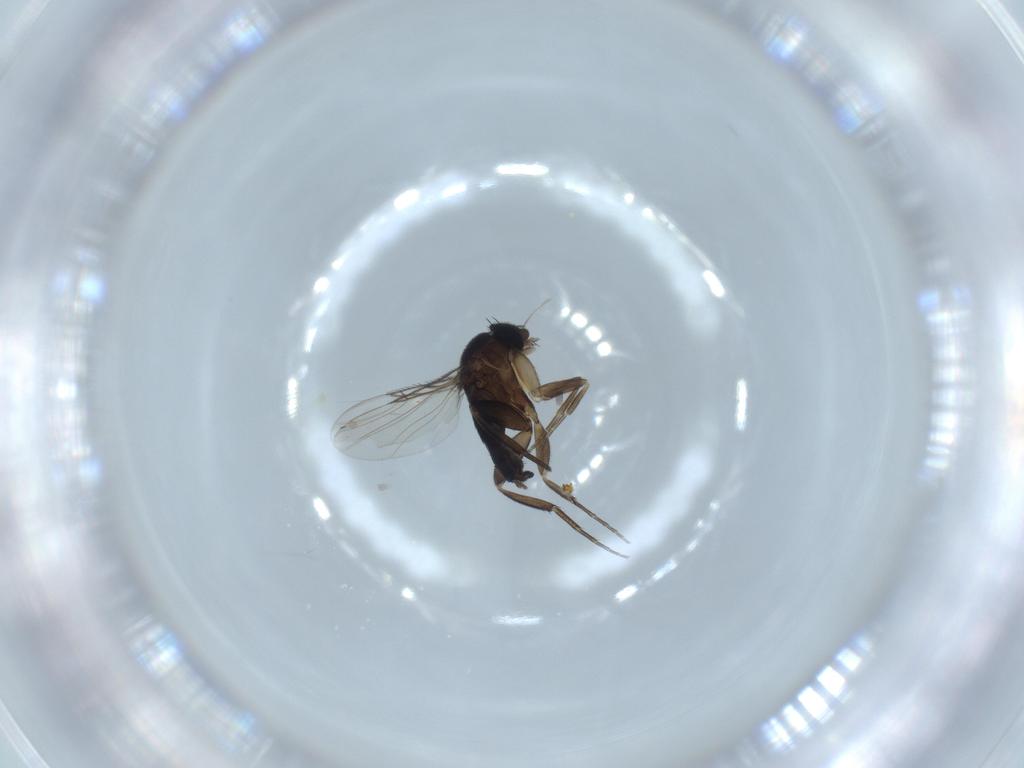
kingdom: Animalia
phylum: Arthropoda
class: Insecta
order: Diptera
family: Phoridae
